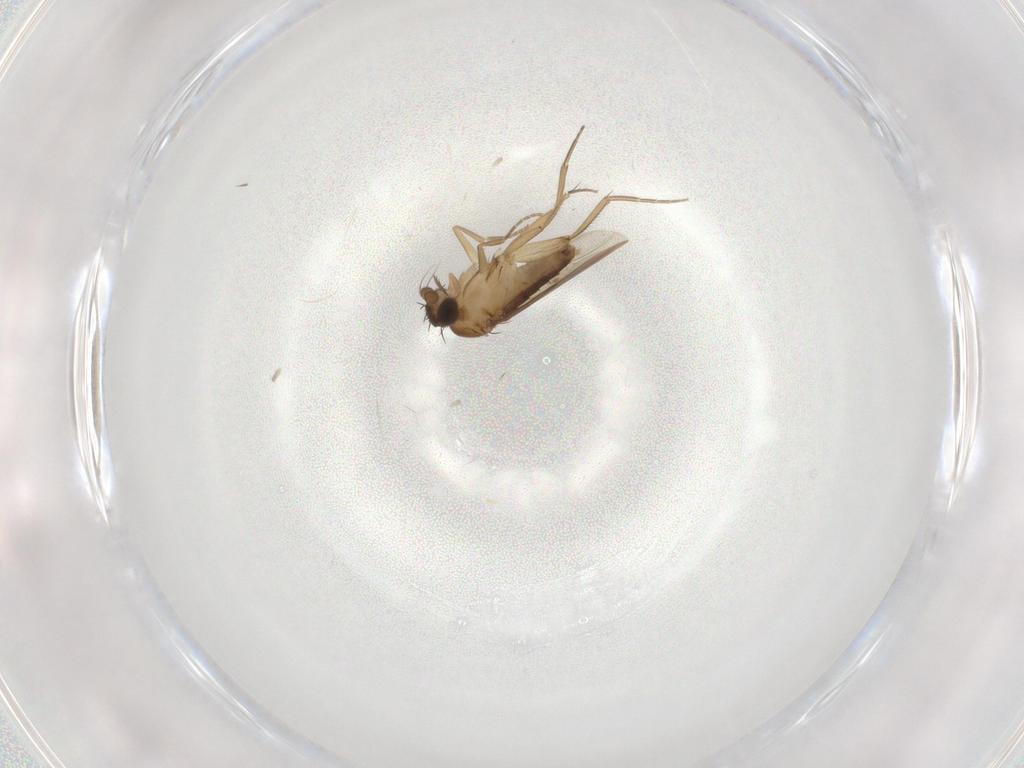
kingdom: Animalia
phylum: Arthropoda
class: Insecta
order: Diptera
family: Phoridae
